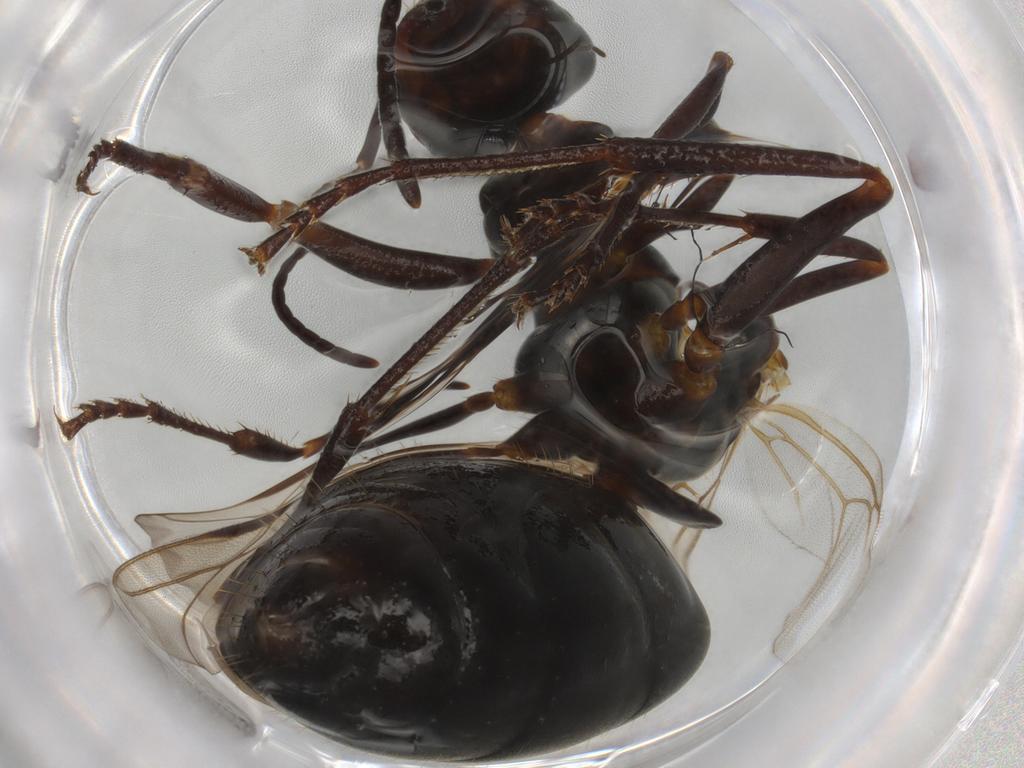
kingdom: Animalia
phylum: Arthropoda
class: Insecta
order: Hymenoptera
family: Formicidae
